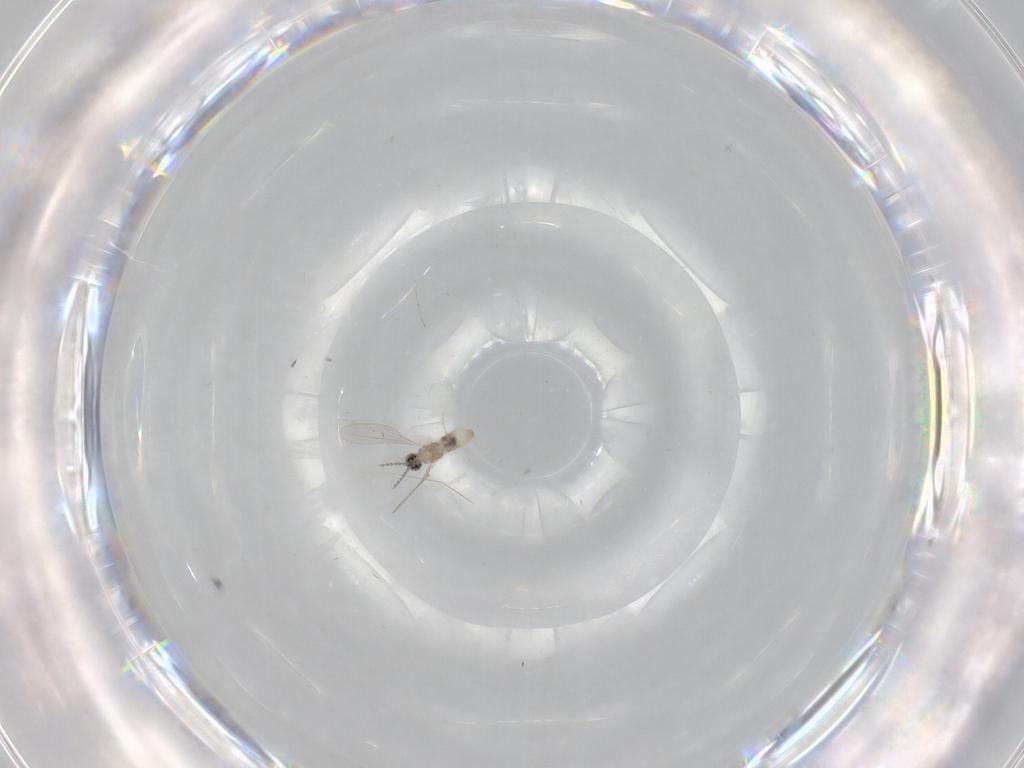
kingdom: Animalia
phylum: Arthropoda
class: Insecta
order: Diptera
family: Cecidomyiidae
